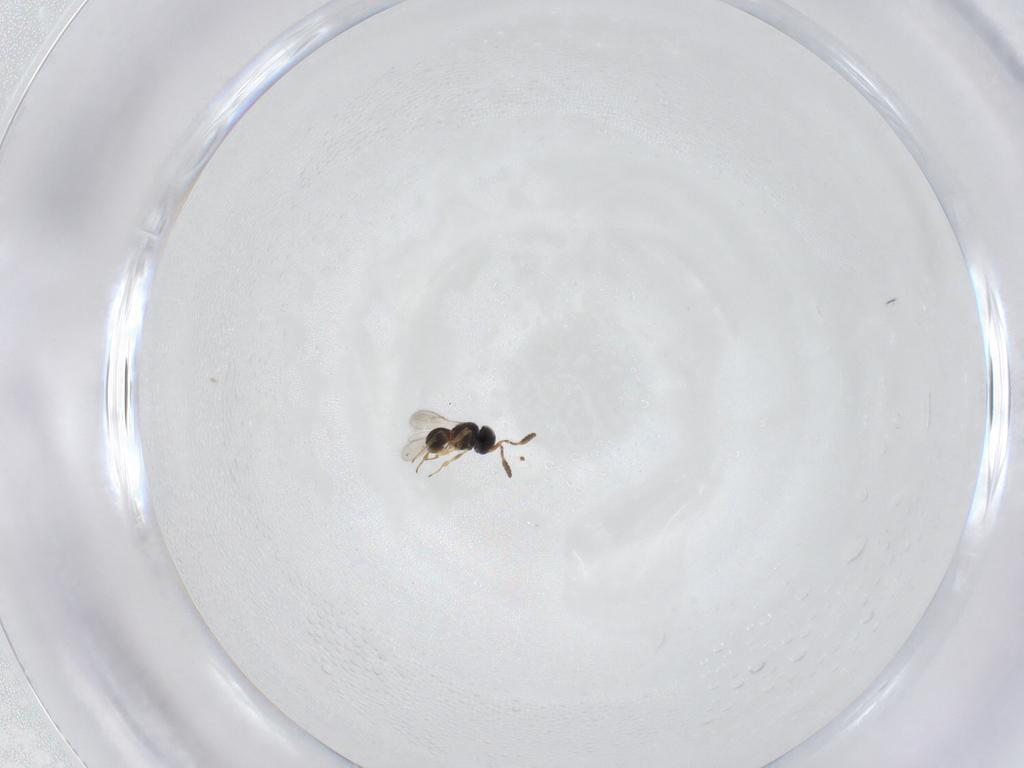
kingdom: Animalia
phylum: Arthropoda
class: Insecta
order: Hymenoptera
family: Scelionidae
